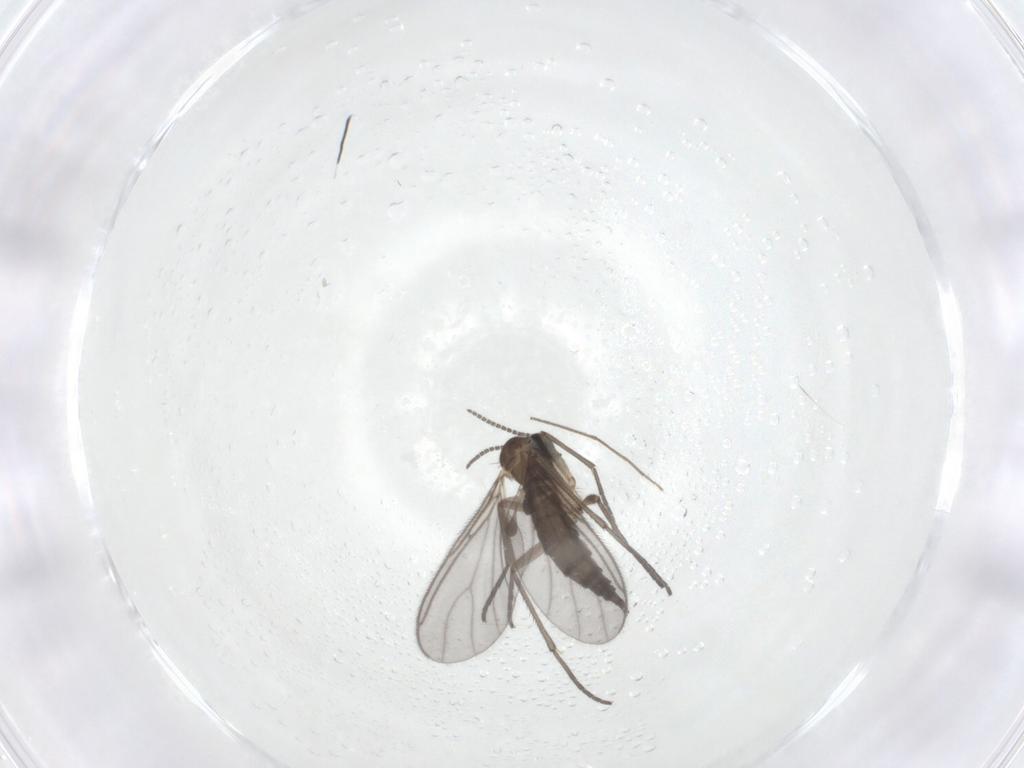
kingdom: Animalia
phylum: Arthropoda
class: Insecta
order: Diptera
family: Sciaridae
